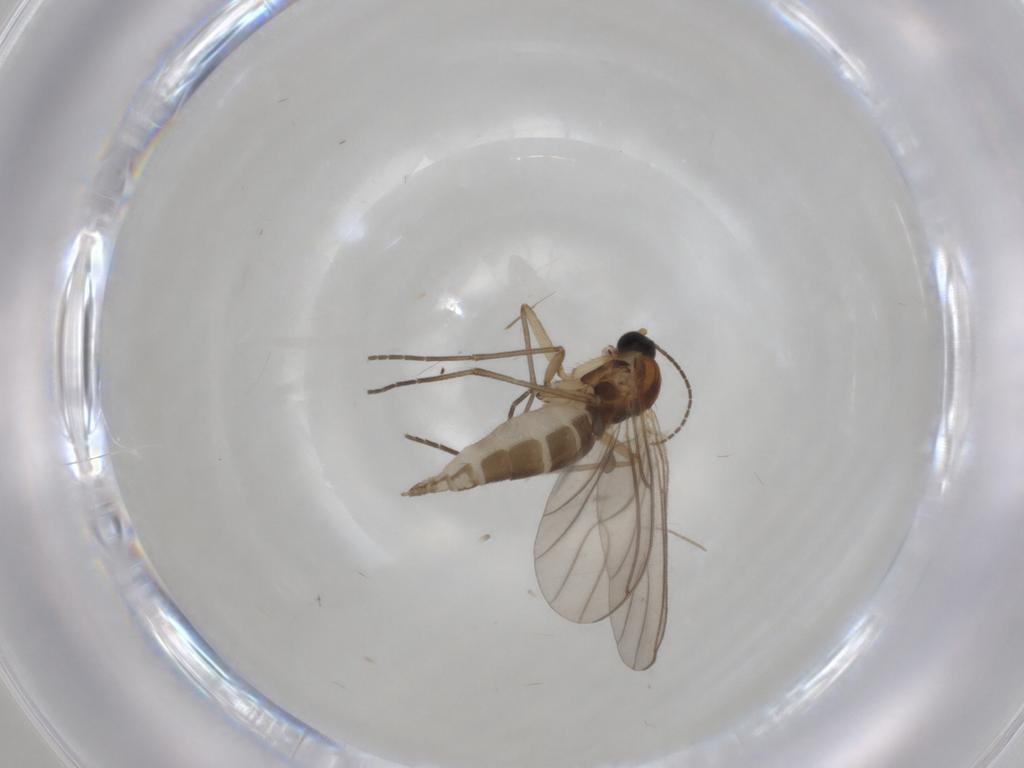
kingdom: Animalia
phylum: Arthropoda
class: Insecta
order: Diptera
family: Sciaridae
